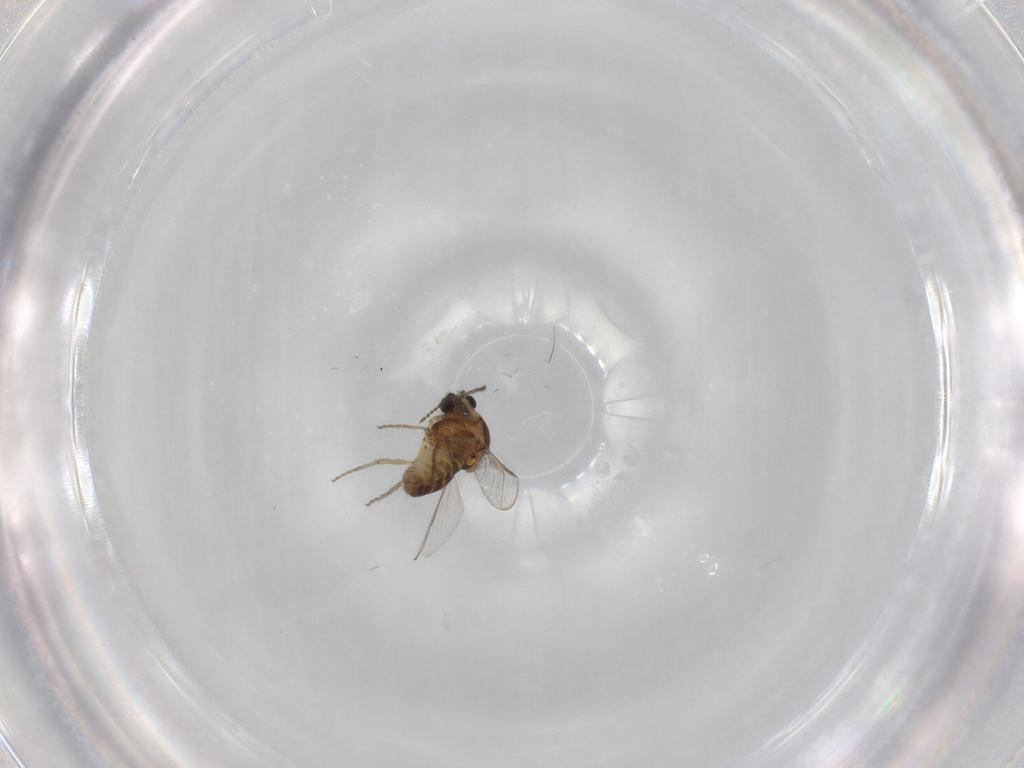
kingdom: Animalia
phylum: Arthropoda
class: Insecta
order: Diptera
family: Ceratopogonidae
